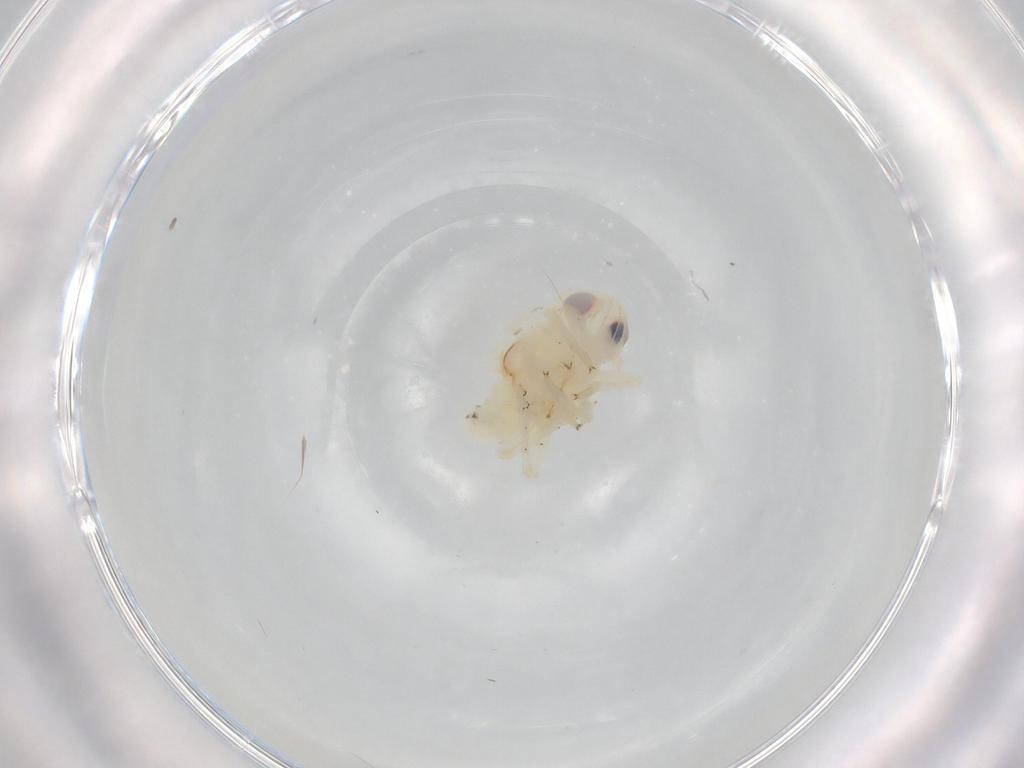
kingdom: Animalia
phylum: Arthropoda
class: Insecta
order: Hemiptera
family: Nogodinidae
